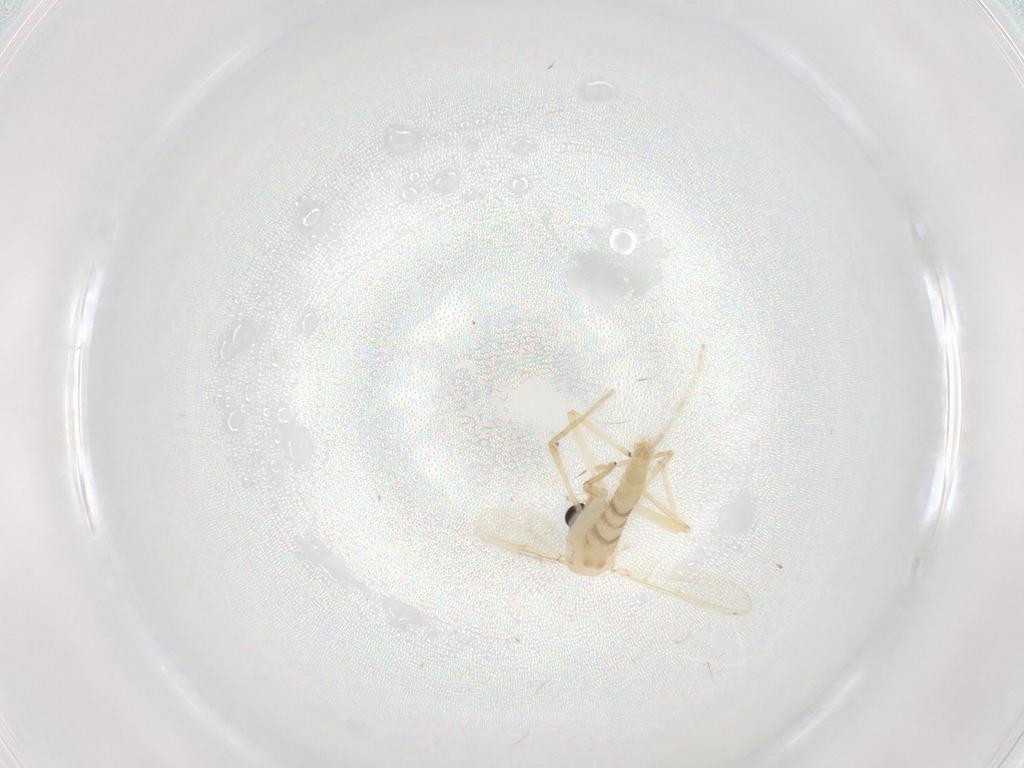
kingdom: Animalia
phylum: Arthropoda
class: Insecta
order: Diptera
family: Chironomidae
